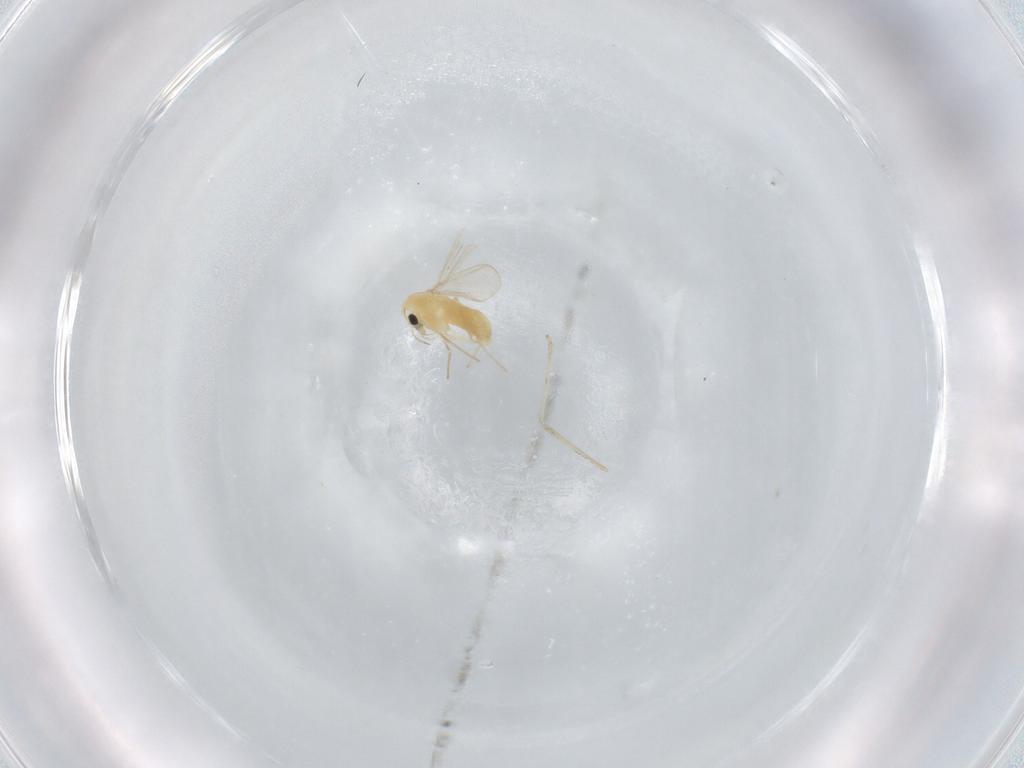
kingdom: Animalia
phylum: Arthropoda
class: Insecta
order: Diptera
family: Chironomidae
